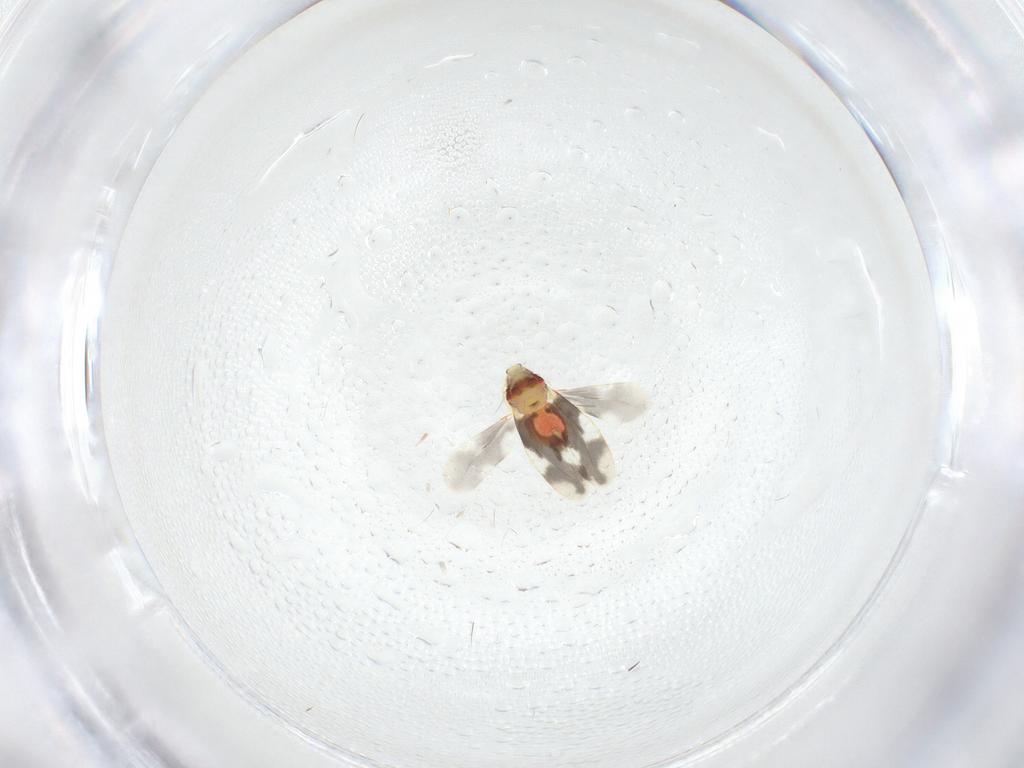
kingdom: Animalia
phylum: Arthropoda
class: Insecta
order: Hemiptera
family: Aleyrodidae
